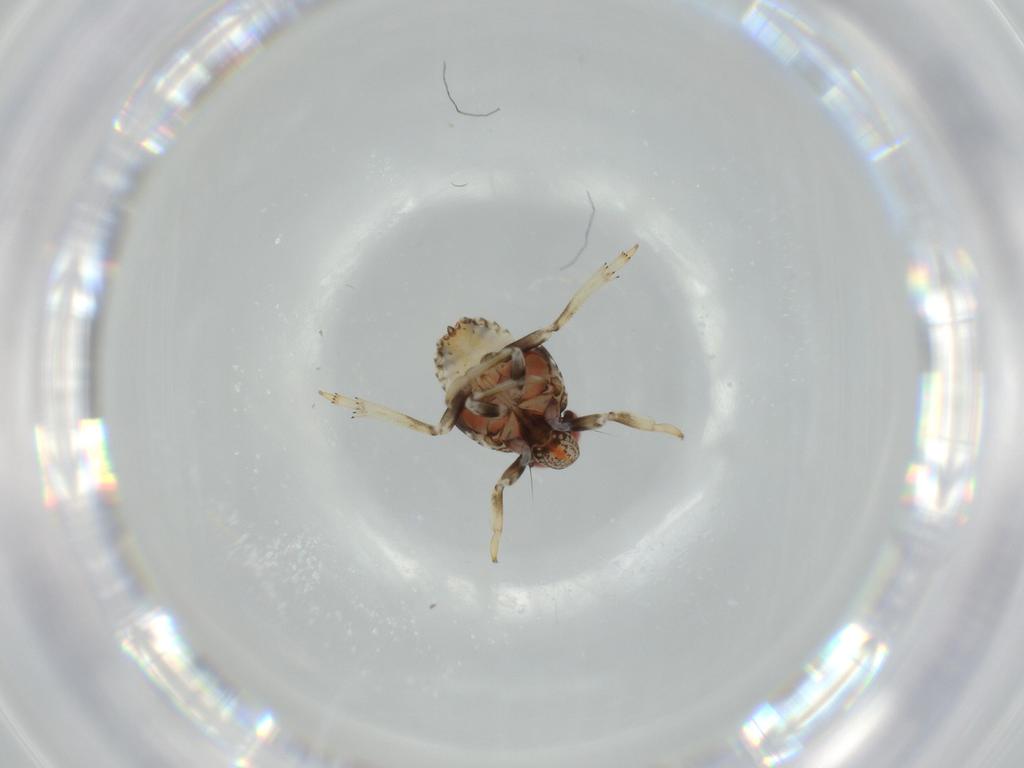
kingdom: Animalia
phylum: Arthropoda
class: Insecta
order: Hemiptera
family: Issidae
